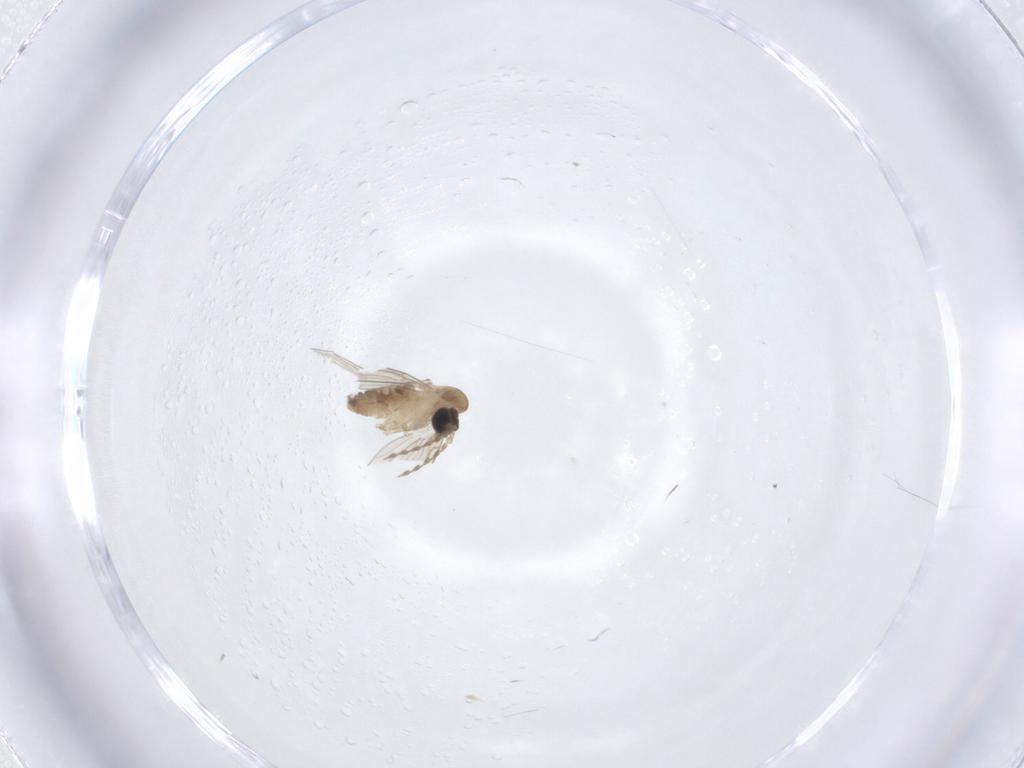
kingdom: Animalia
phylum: Arthropoda
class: Insecta
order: Diptera
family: Psychodidae
